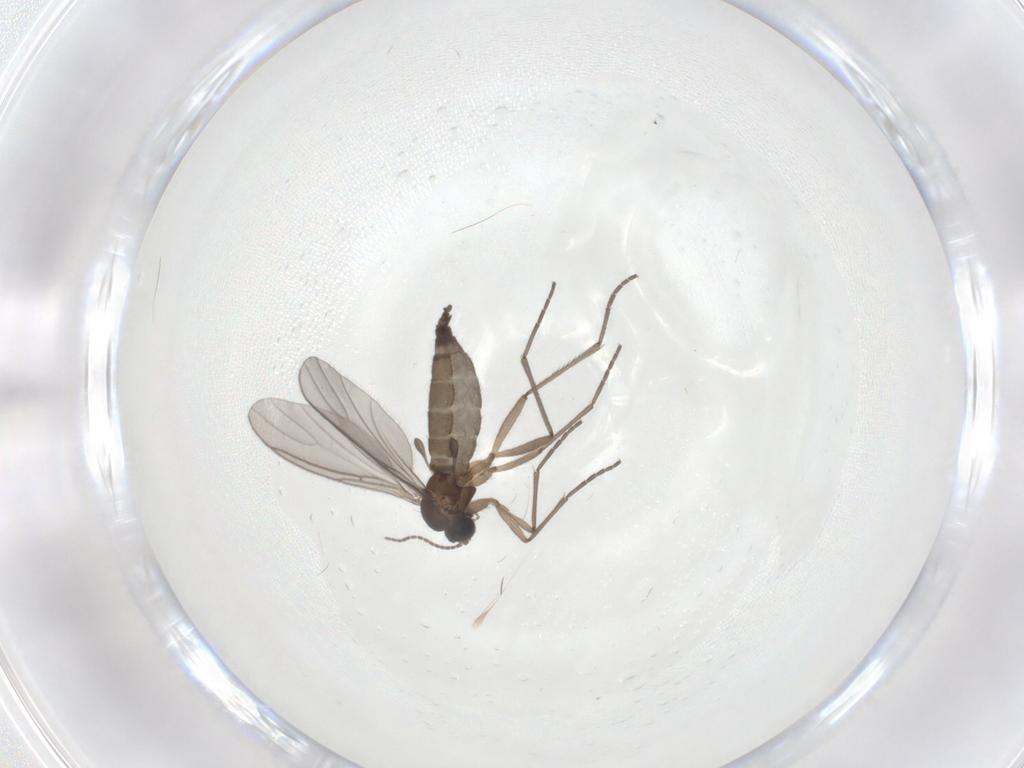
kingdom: Animalia
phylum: Arthropoda
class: Insecta
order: Diptera
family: Sciaridae
